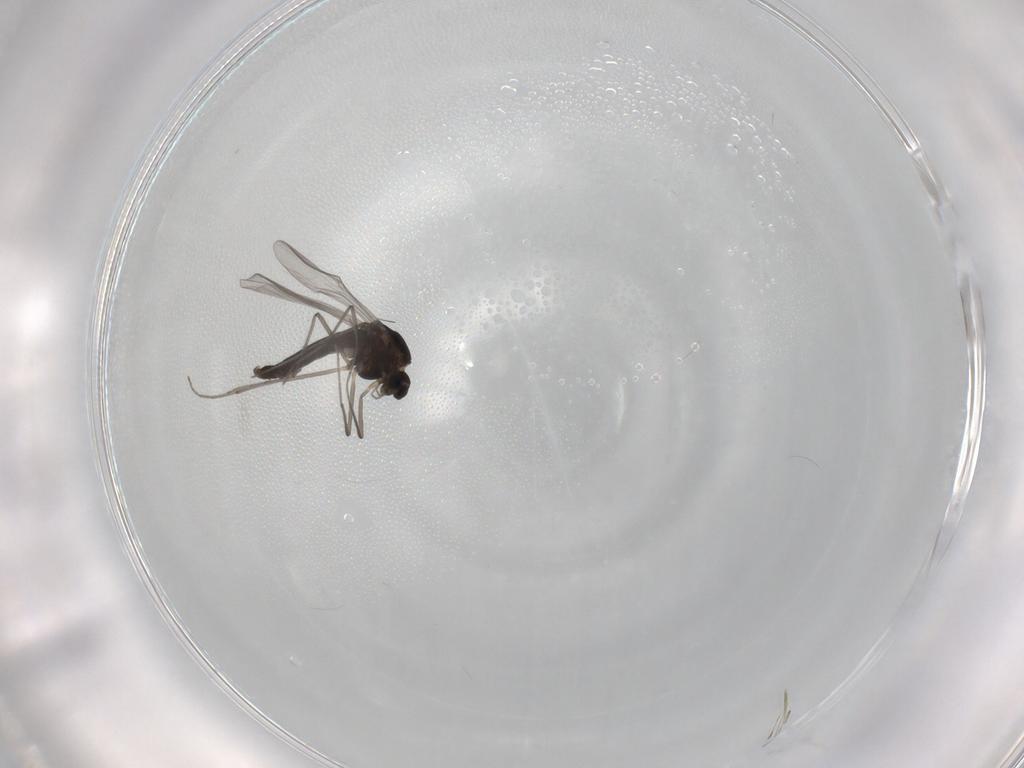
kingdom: Animalia
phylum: Arthropoda
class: Insecta
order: Diptera
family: Chironomidae
